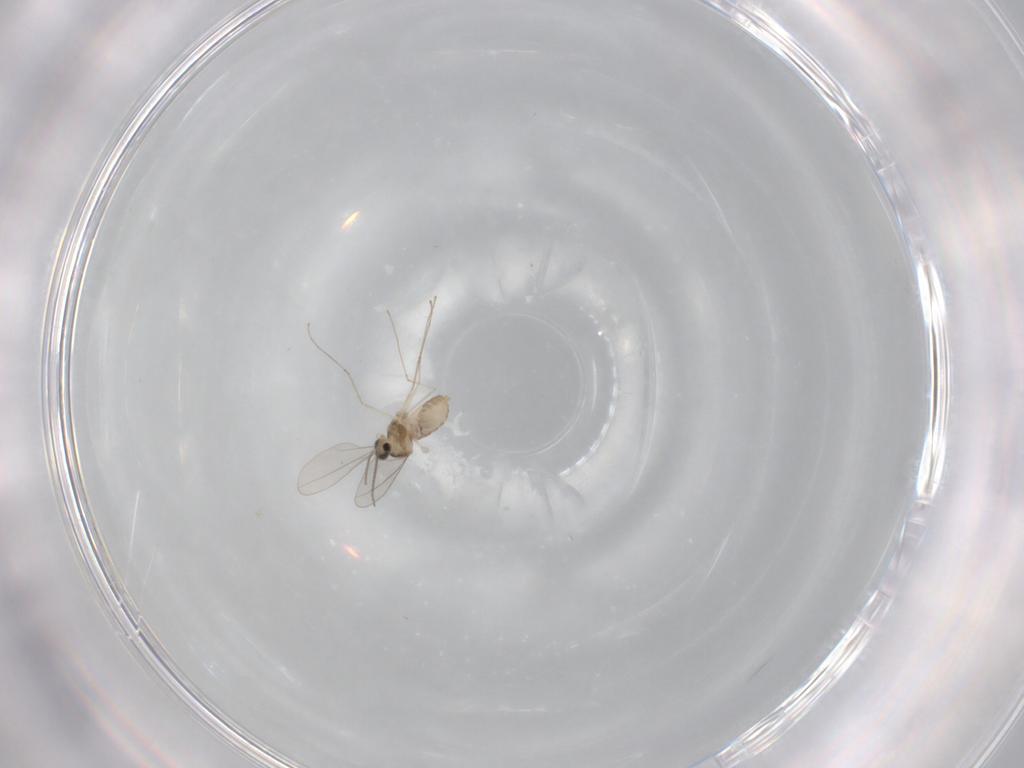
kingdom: Animalia
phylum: Arthropoda
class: Insecta
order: Diptera
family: Cecidomyiidae
